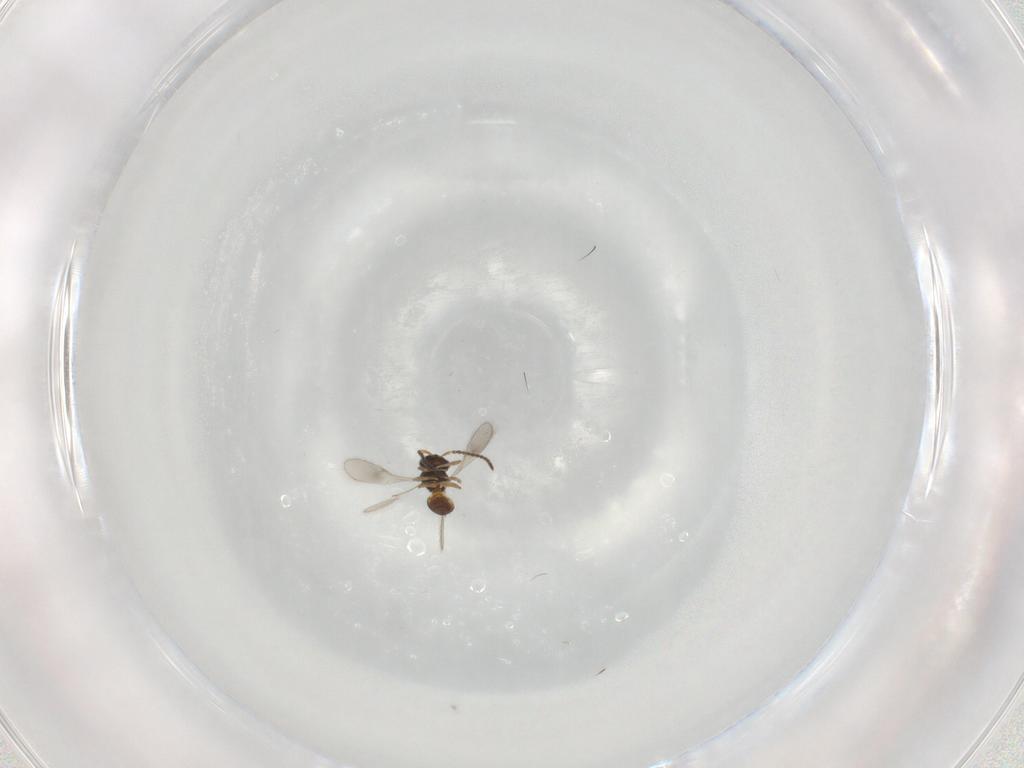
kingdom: Animalia
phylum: Arthropoda
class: Insecta
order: Hymenoptera
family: Scelionidae
